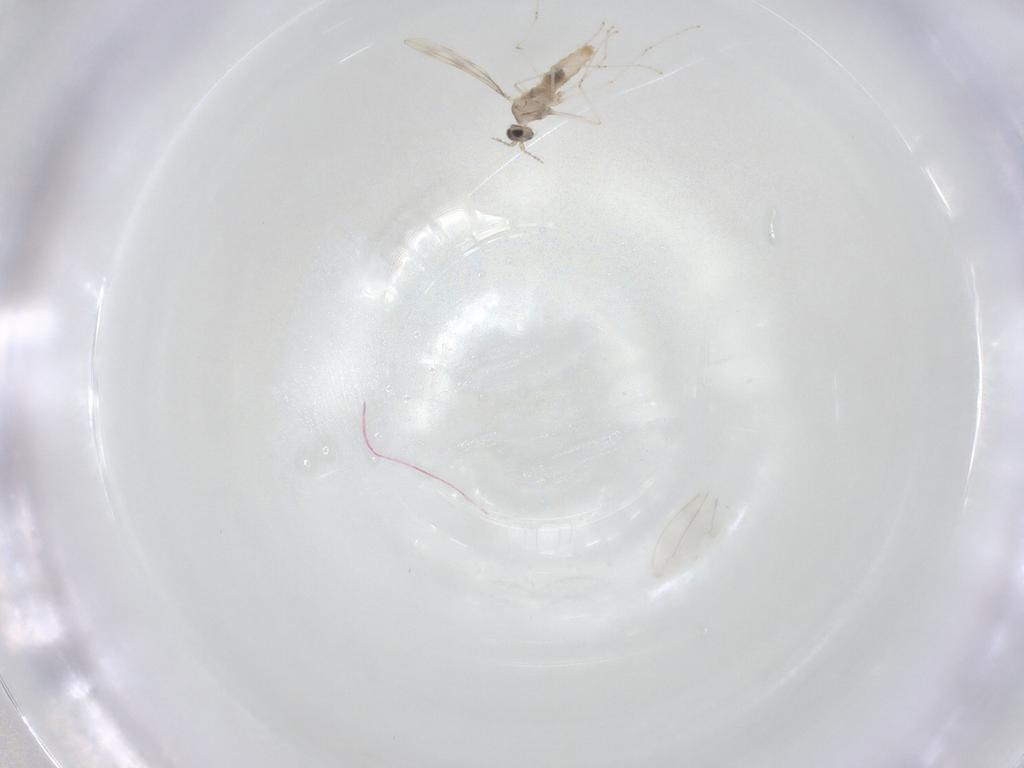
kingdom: Animalia
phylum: Arthropoda
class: Insecta
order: Diptera
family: Cecidomyiidae
